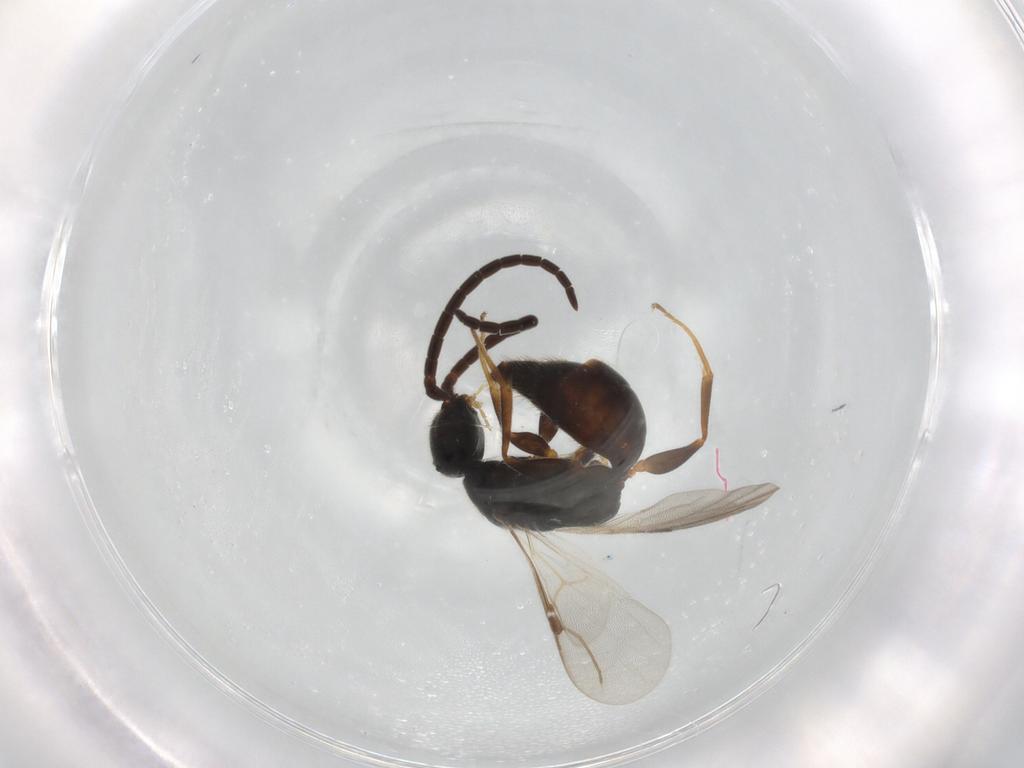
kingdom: Animalia
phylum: Arthropoda
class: Insecta
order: Hymenoptera
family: Bethylidae
